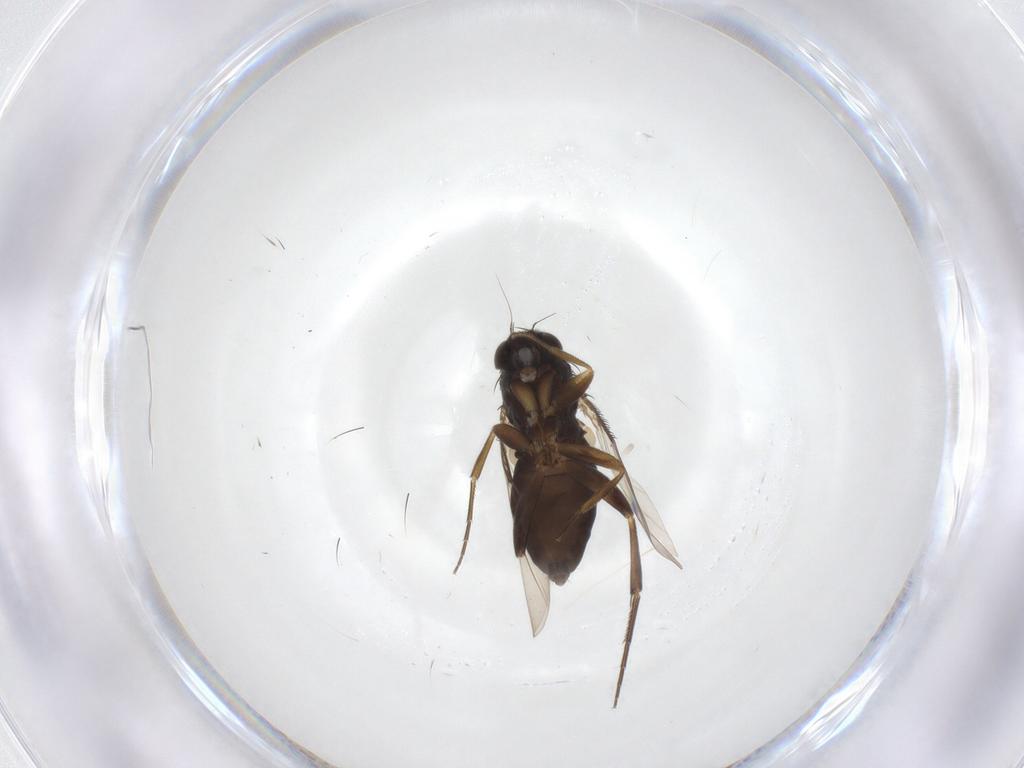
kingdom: Animalia
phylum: Arthropoda
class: Insecta
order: Diptera
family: Phoridae
